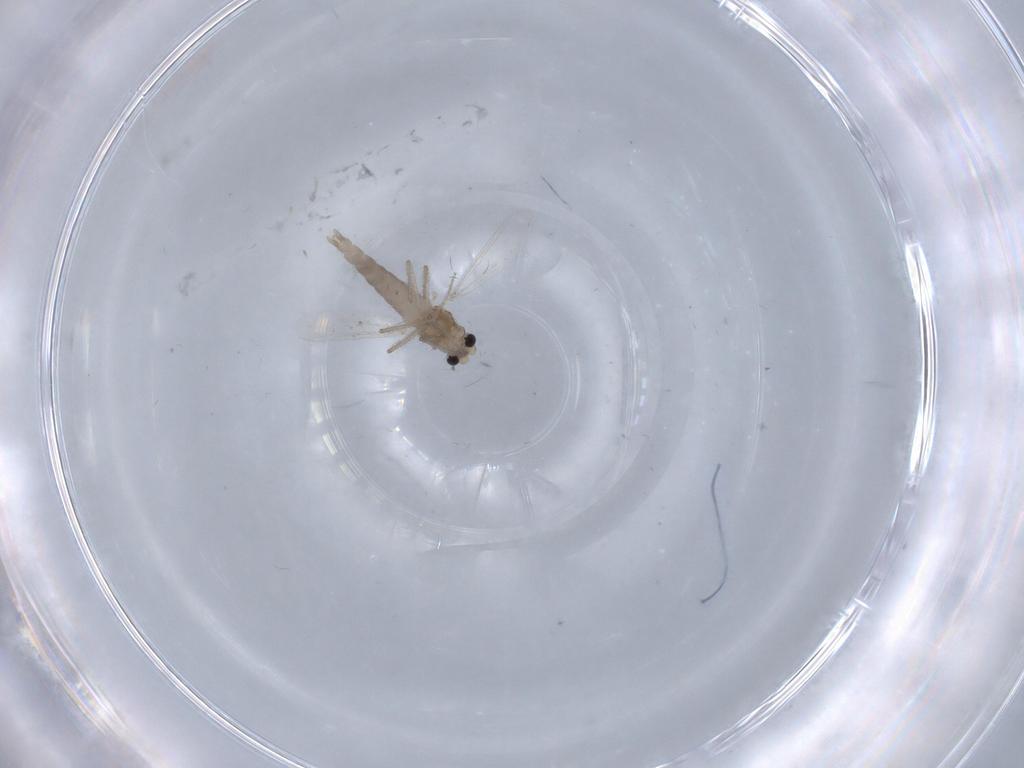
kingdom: Animalia
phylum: Arthropoda
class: Insecta
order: Diptera
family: Chironomidae
